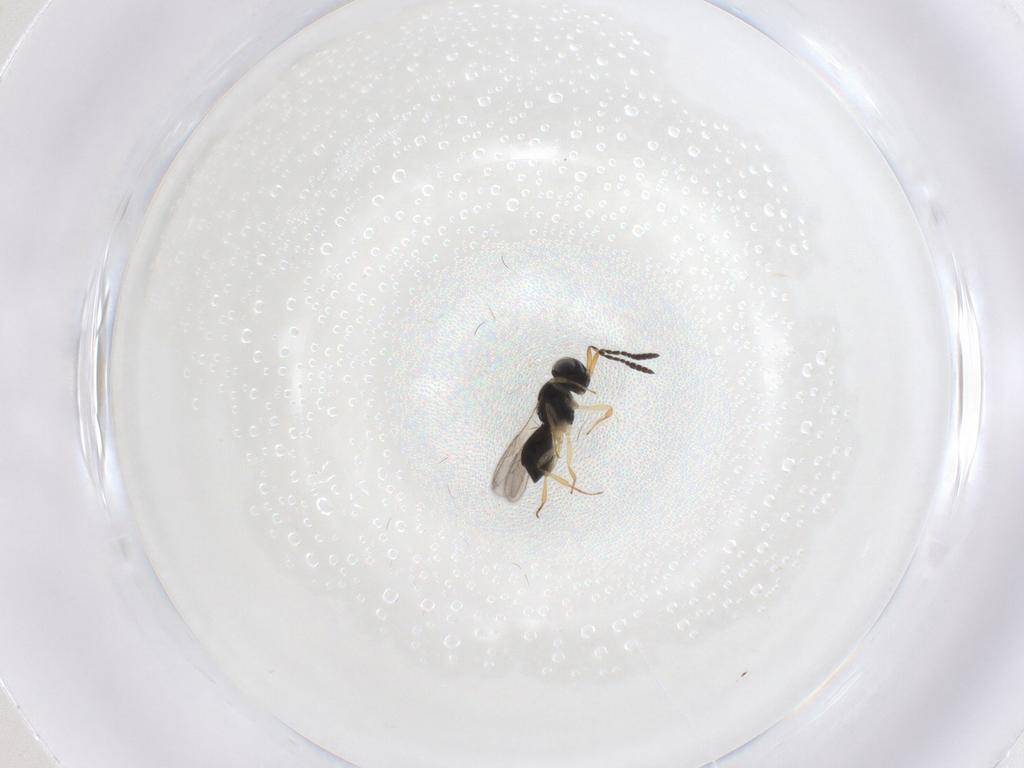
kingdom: Animalia
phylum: Arthropoda
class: Insecta
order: Hymenoptera
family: Scelionidae
